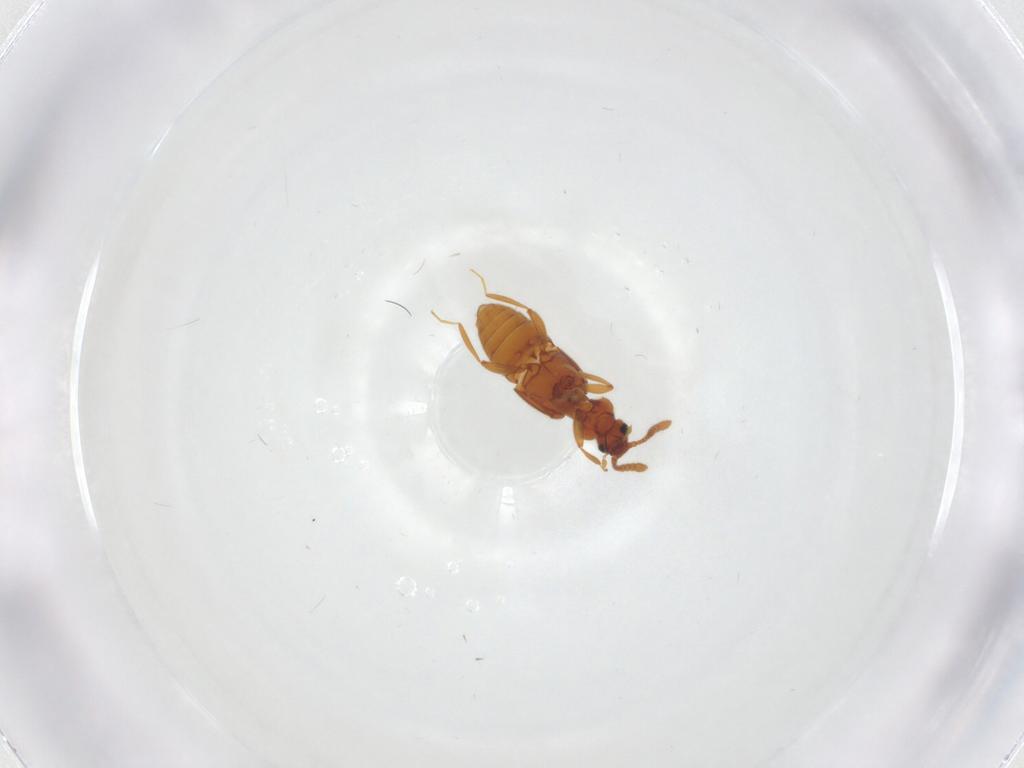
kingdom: Animalia
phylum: Arthropoda
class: Insecta
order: Coleoptera
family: Staphylinidae
